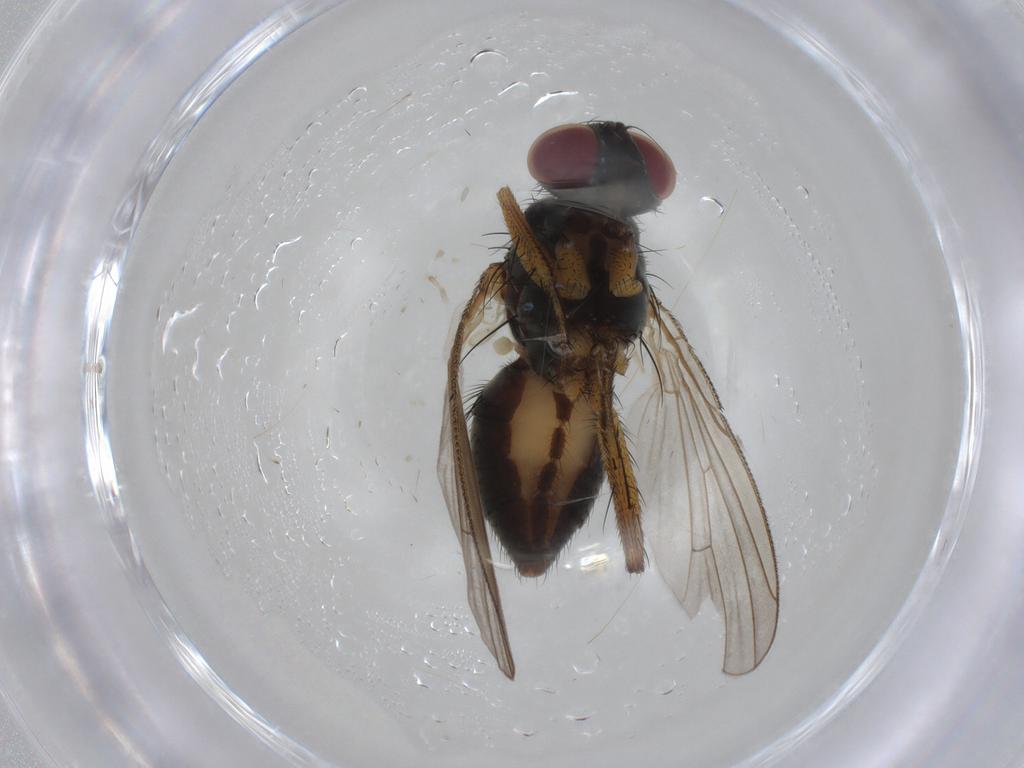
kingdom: Animalia
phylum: Arthropoda
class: Insecta
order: Diptera
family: Muscidae
